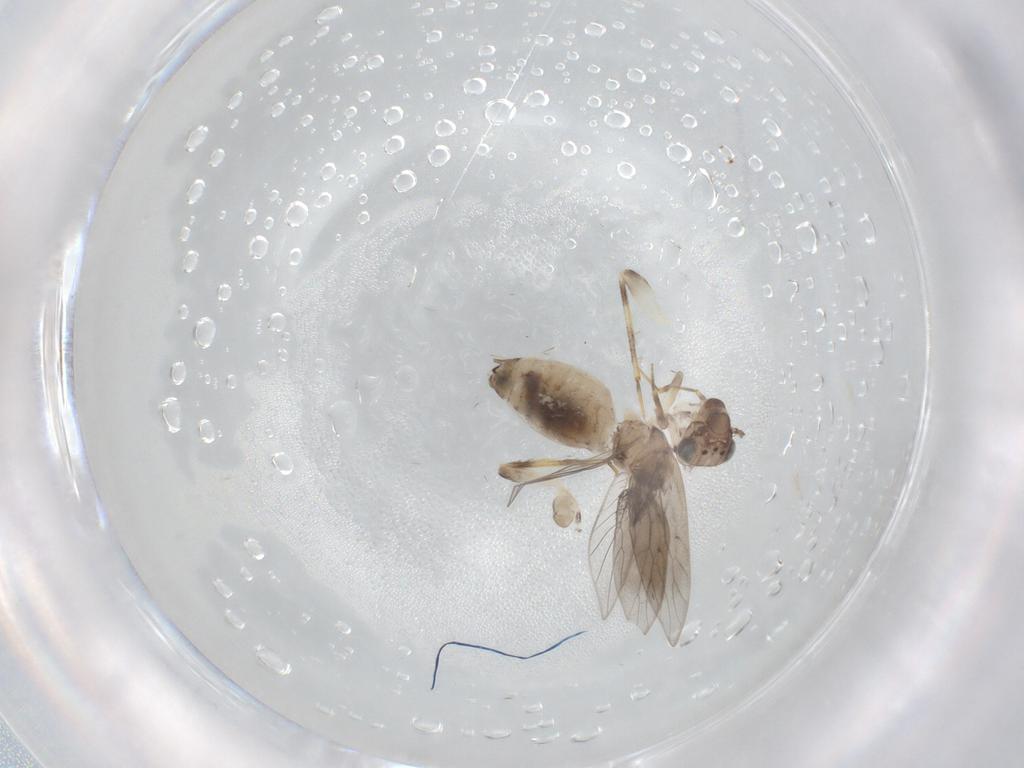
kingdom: Animalia
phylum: Arthropoda
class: Insecta
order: Psocodea
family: Lepidopsocidae
